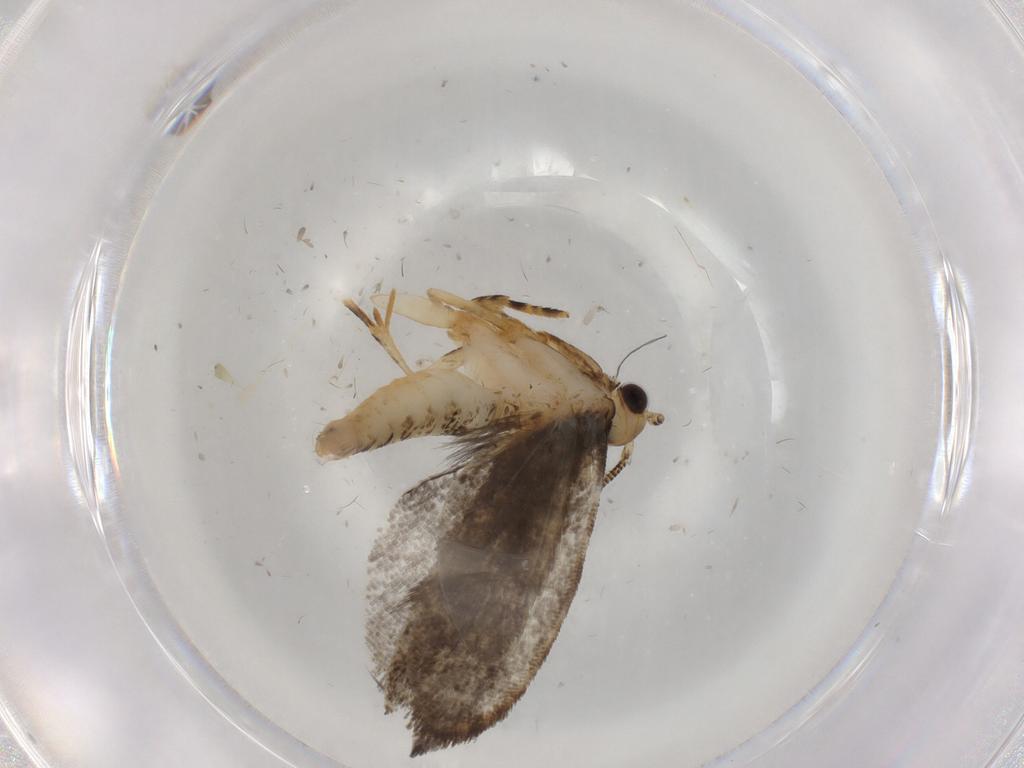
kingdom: Animalia
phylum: Arthropoda
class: Insecta
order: Lepidoptera
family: Tineidae
